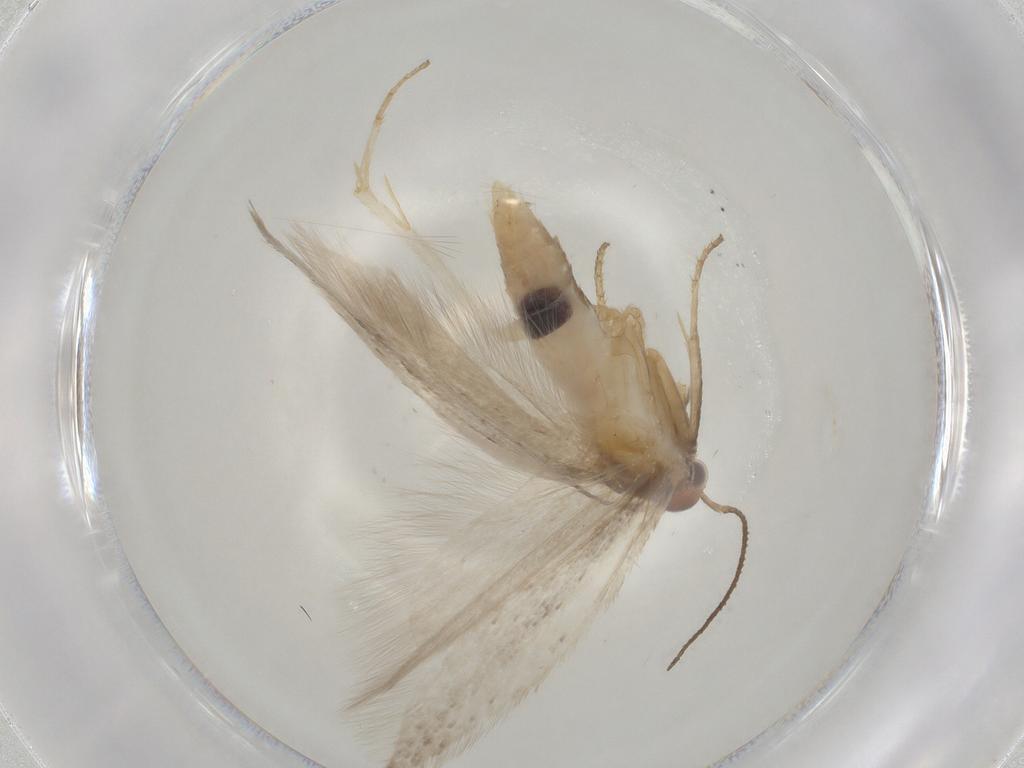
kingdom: Animalia
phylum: Arthropoda
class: Insecta
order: Lepidoptera
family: Gelechiidae
